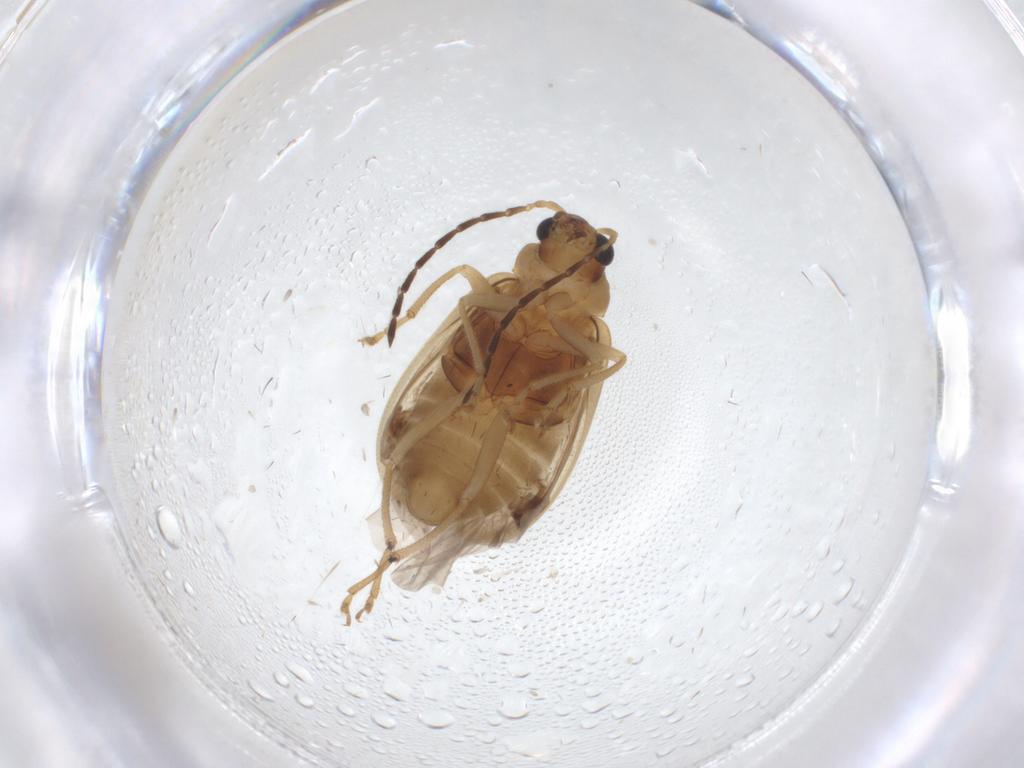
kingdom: Animalia
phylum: Arthropoda
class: Insecta
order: Coleoptera
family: Chrysomelidae
